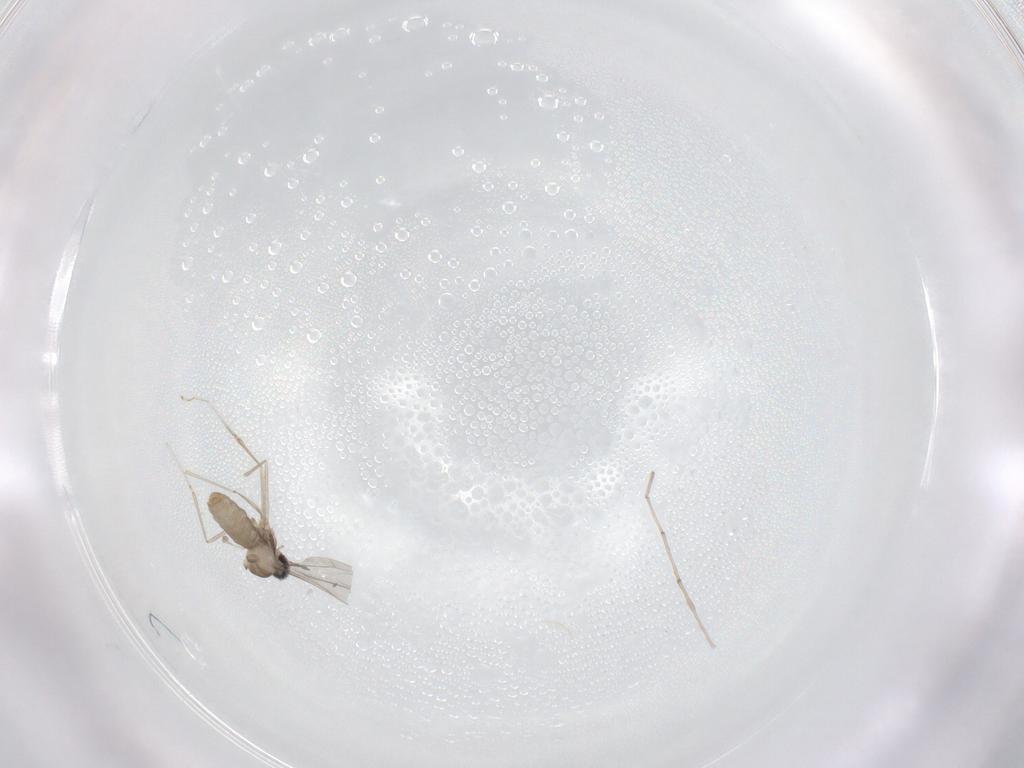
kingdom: Animalia
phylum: Arthropoda
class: Insecta
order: Diptera
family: Cecidomyiidae
